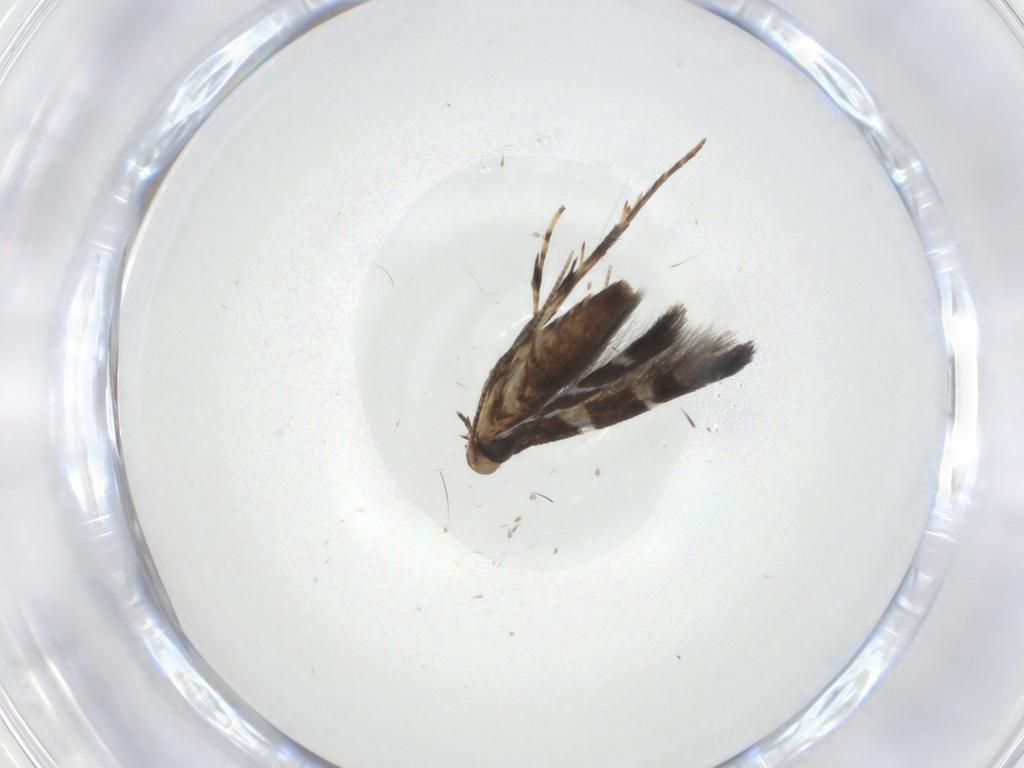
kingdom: Animalia
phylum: Arthropoda
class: Insecta
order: Lepidoptera
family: Gracillariidae
